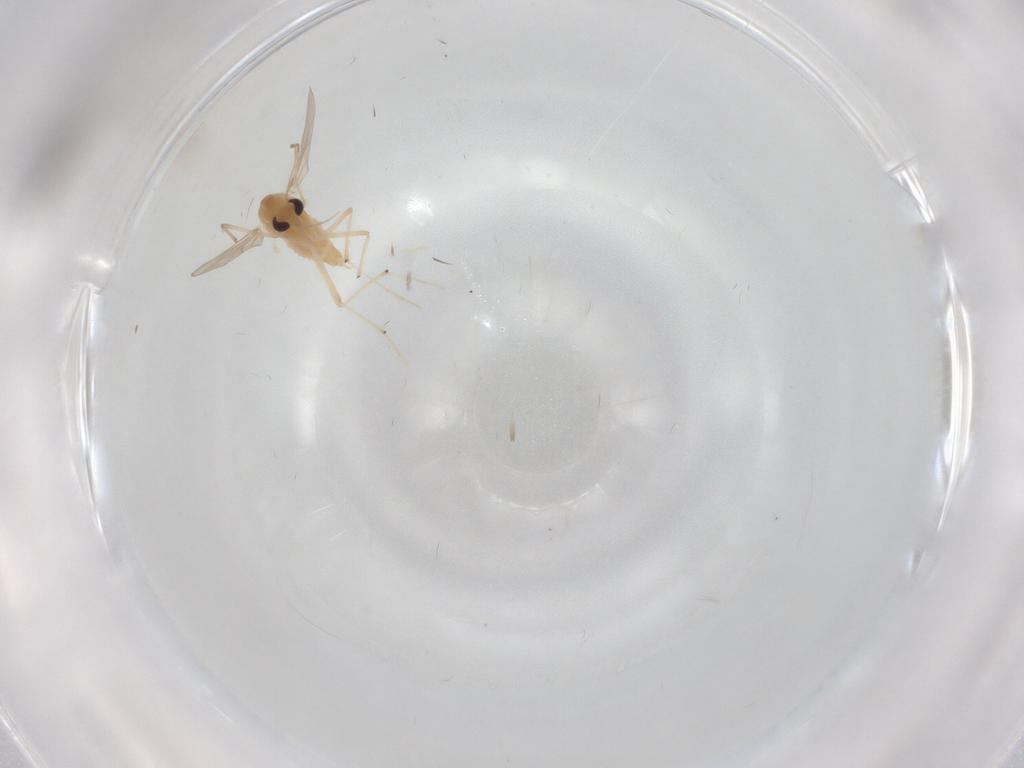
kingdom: Animalia
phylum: Arthropoda
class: Insecta
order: Diptera
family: Chironomidae
